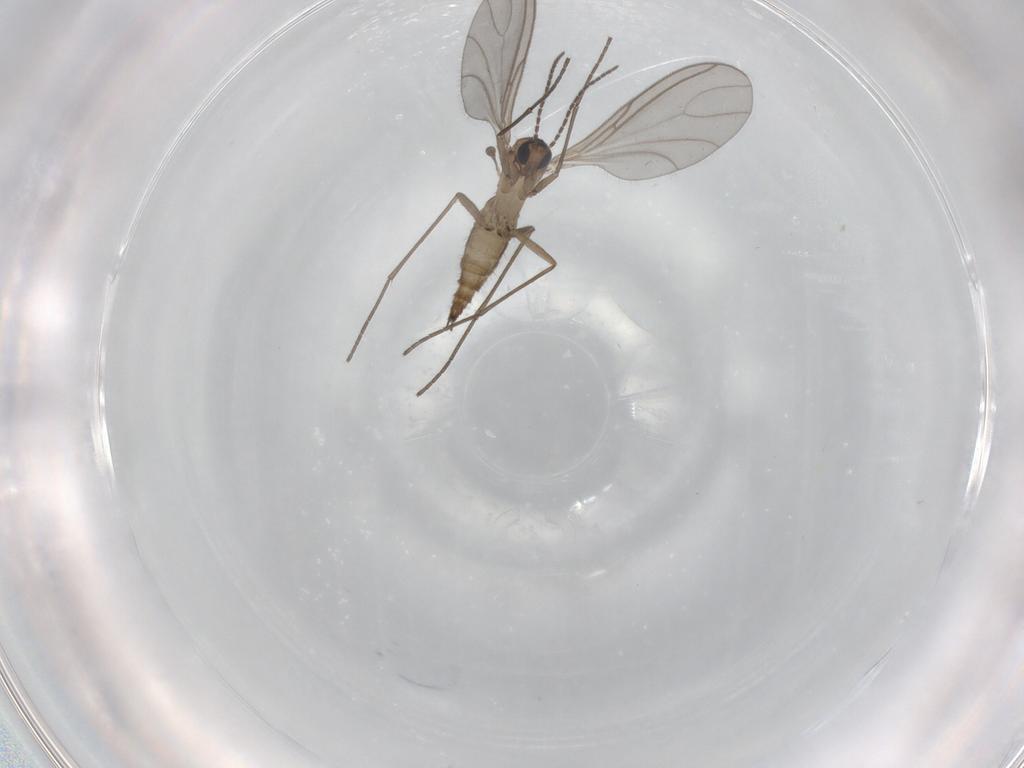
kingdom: Animalia
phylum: Arthropoda
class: Insecta
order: Diptera
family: Sciaridae
